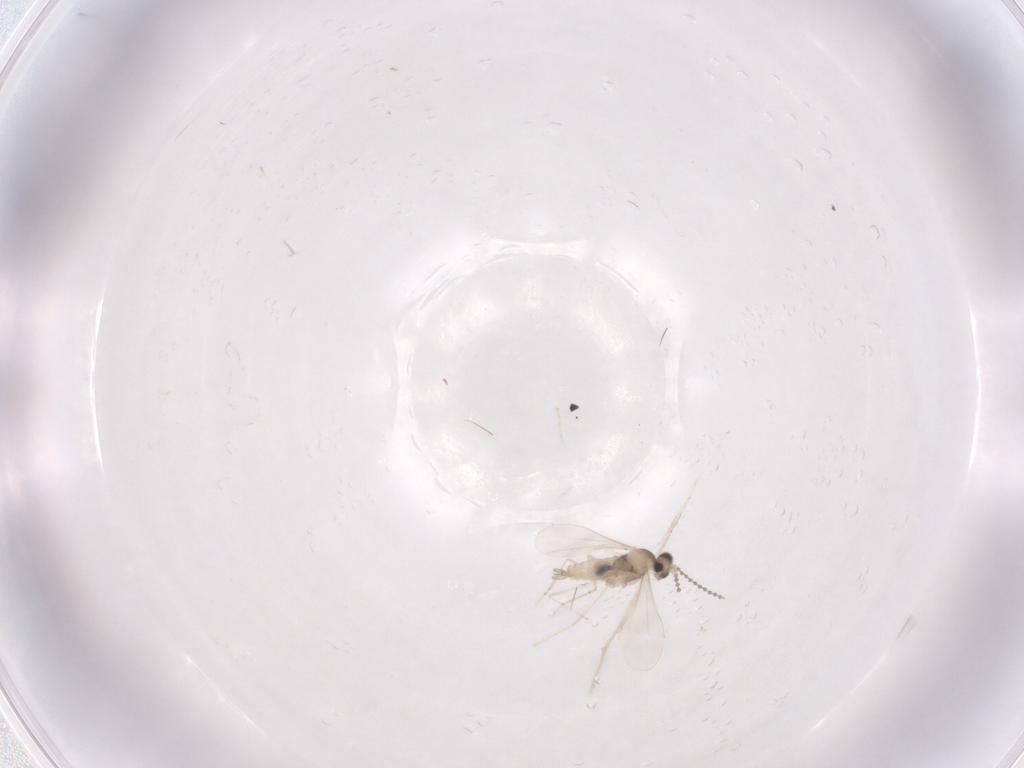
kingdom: Animalia
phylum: Arthropoda
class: Insecta
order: Diptera
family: Cecidomyiidae
